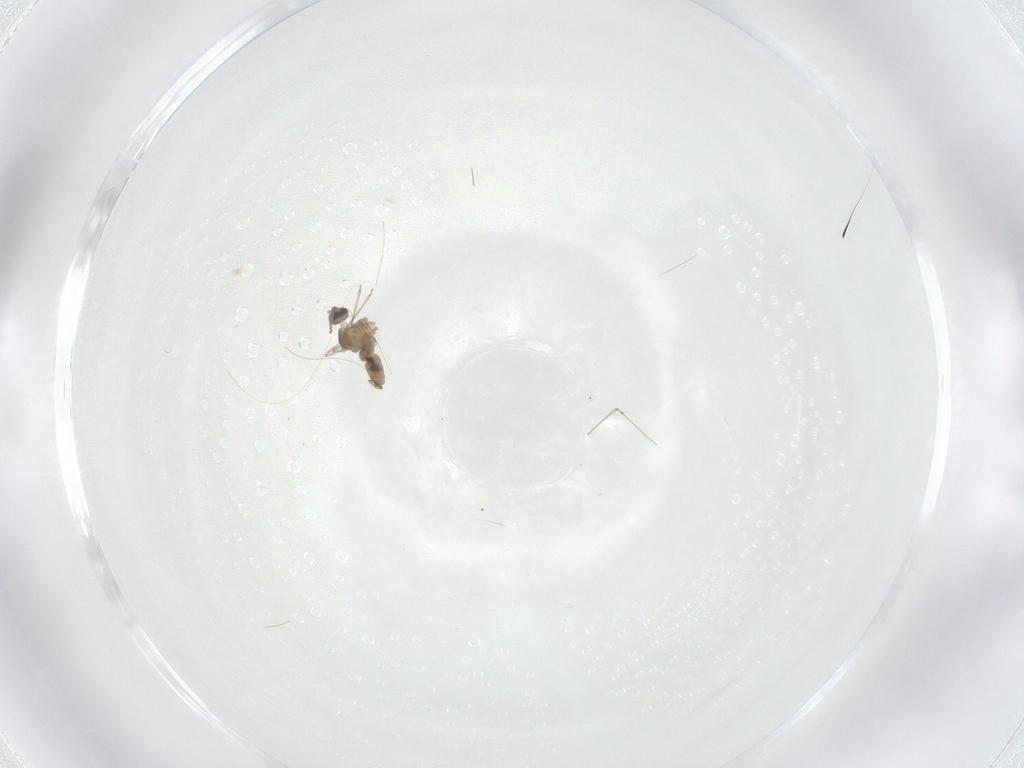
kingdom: Animalia
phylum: Arthropoda
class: Insecta
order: Diptera
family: Cecidomyiidae
